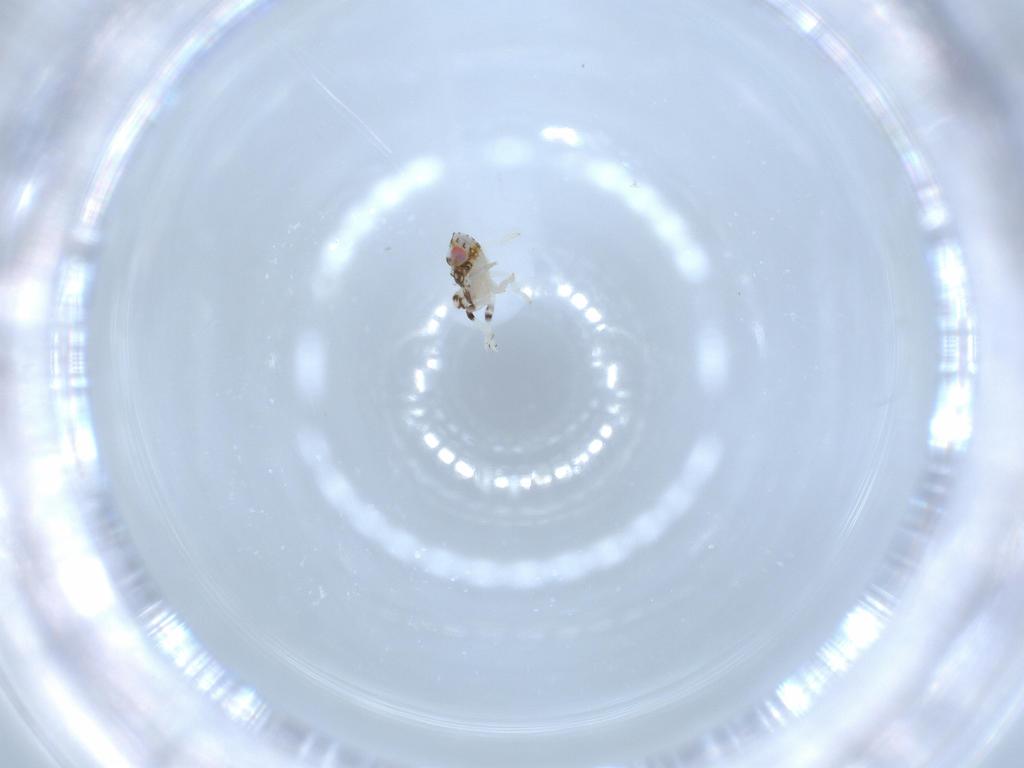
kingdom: Animalia
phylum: Arthropoda
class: Insecta
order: Hemiptera
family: Nogodinidae
